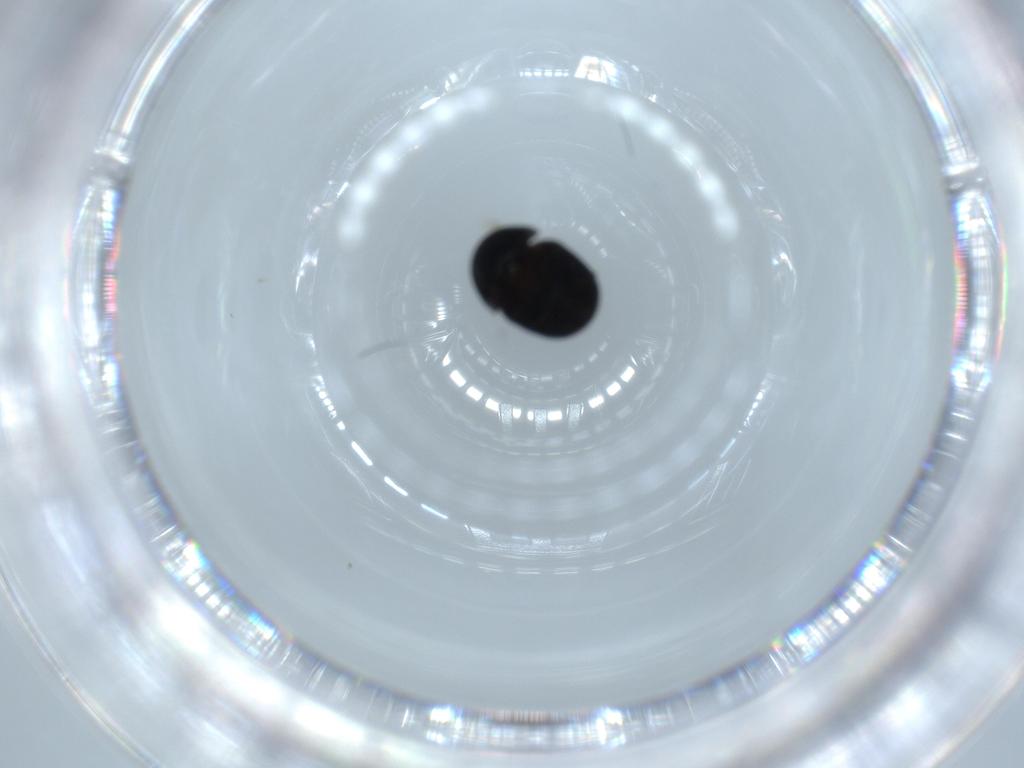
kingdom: Animalia
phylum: Arthropoda
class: Insecta
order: Coleoptera
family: Cybocephalidae
